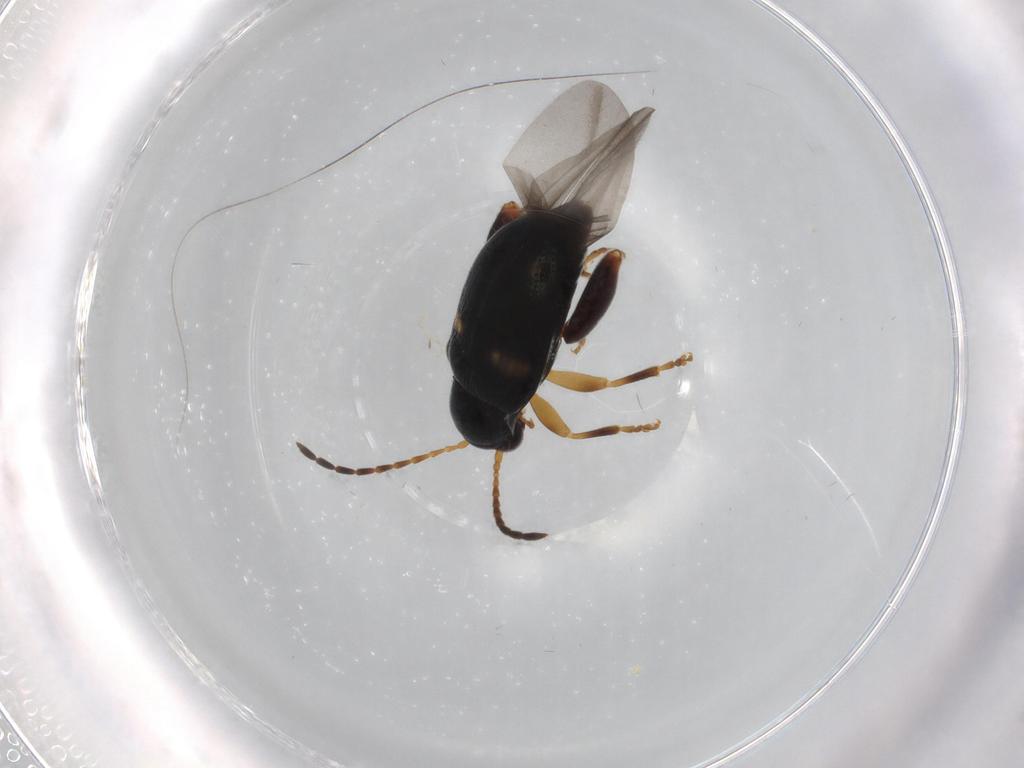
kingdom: Animalia
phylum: Arthropoda
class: Insecta
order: Coleoptera
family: Chrysomelidae
